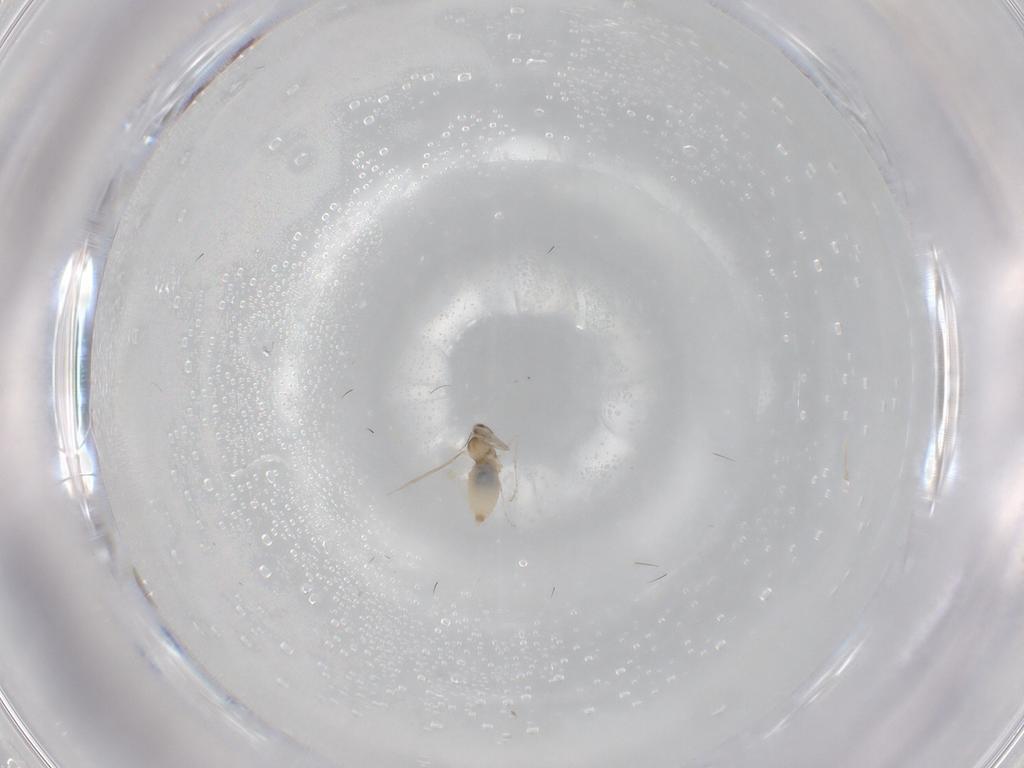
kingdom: Animalia
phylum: Arthropoda
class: Insecta
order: Diptera
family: Cecidomyiidae
